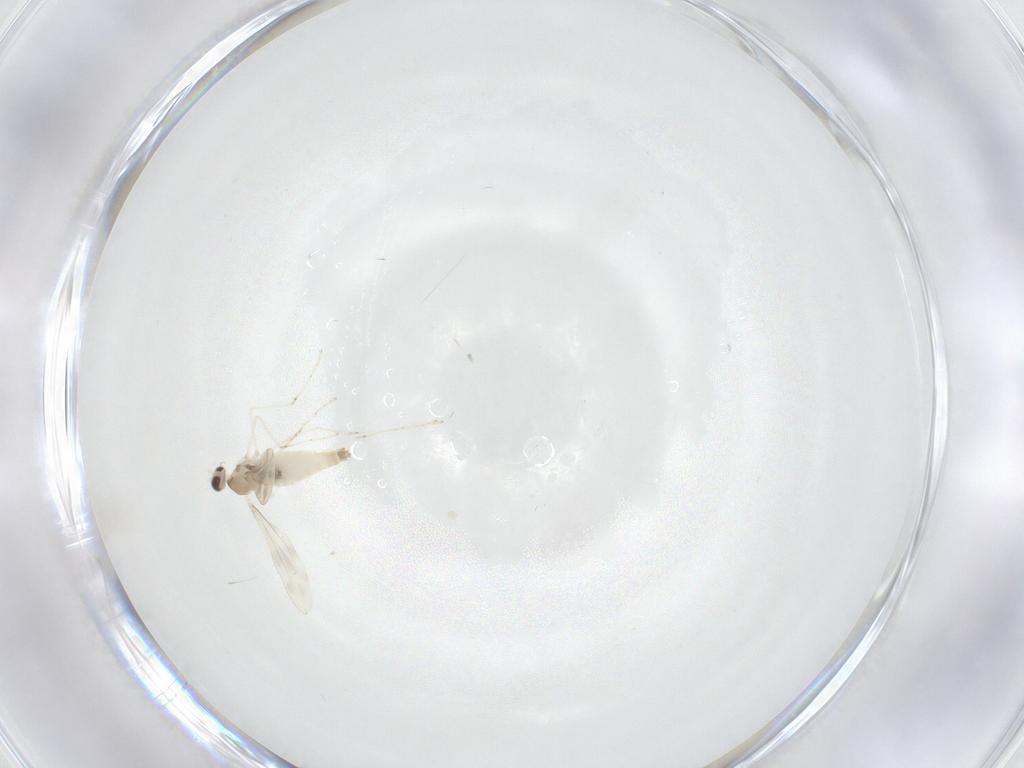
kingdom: Animalia
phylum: Arthropoda
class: Insecta
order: Diptera
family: Cecidomyiidae
